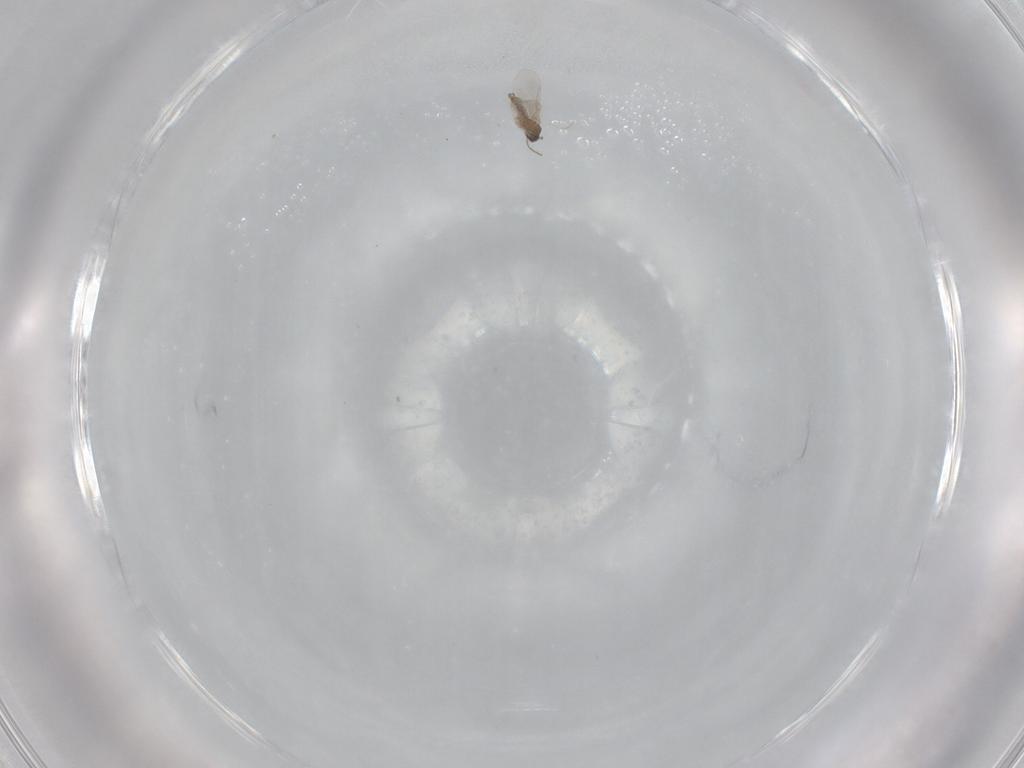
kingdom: Animalia
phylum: Arthropoda
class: Insecta
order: Diptera
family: Cecidomyiidae
